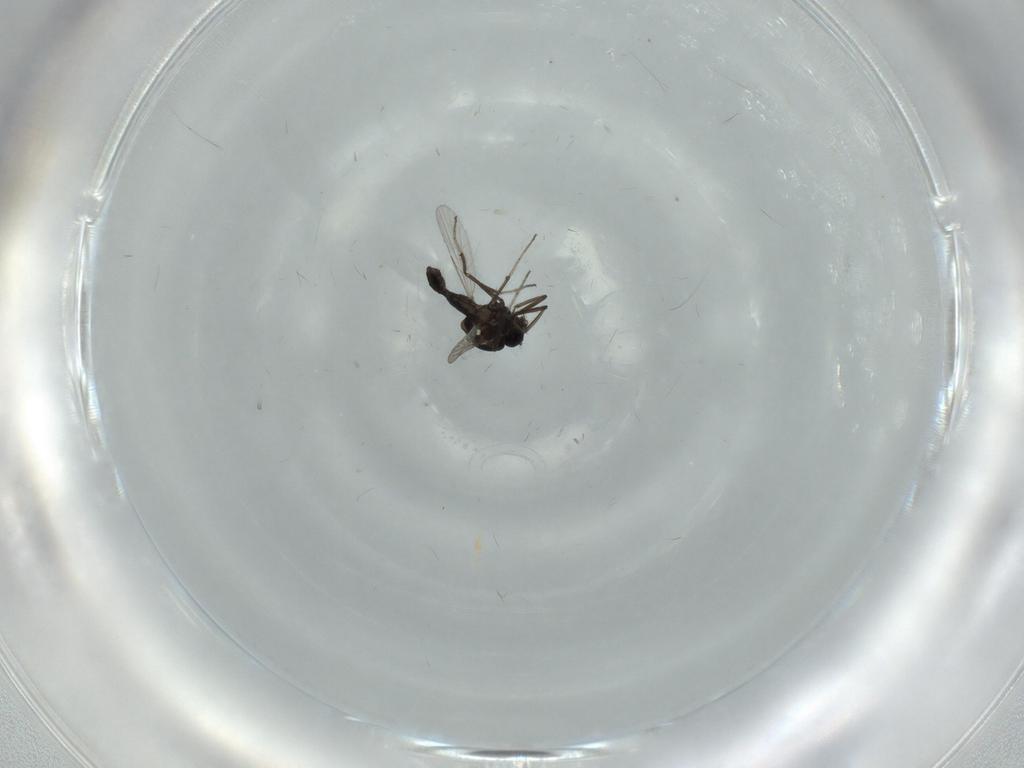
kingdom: Animalia
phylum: Arthropoda
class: Insecta
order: Diptera
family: Ceratopogonidae
